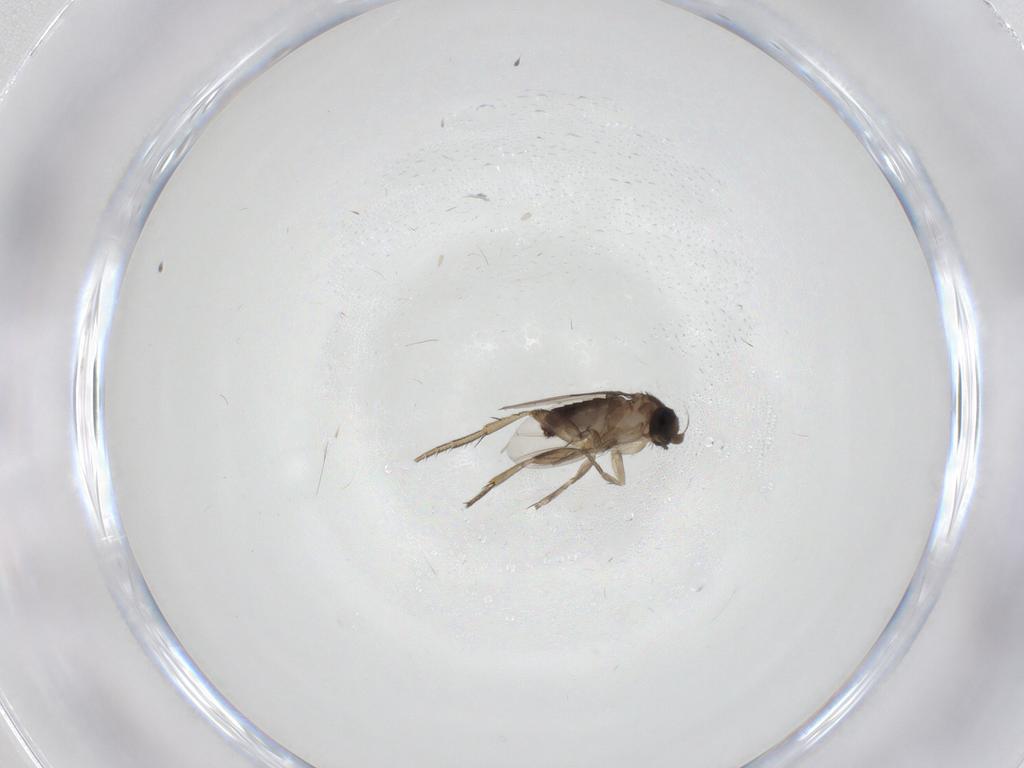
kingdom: Animalia
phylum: Arthropoda
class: Insecta
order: Diptera
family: Phoridae
